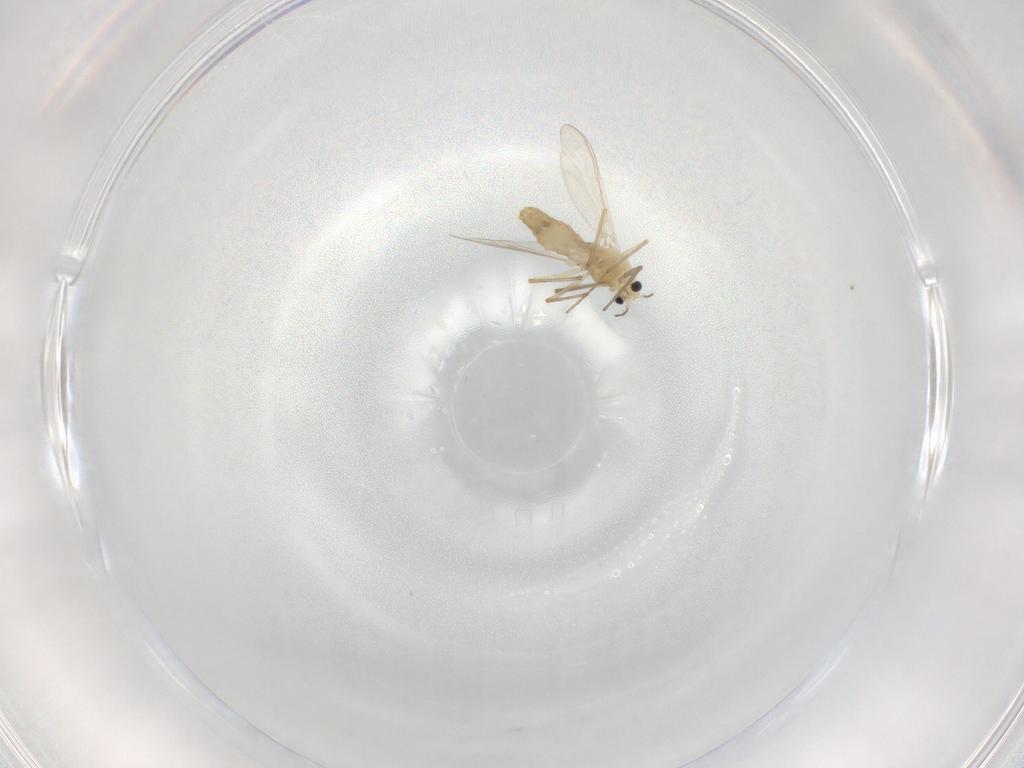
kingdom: Animalia
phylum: Arthropoda
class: Insecta
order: Diptera
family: Chironomidae
